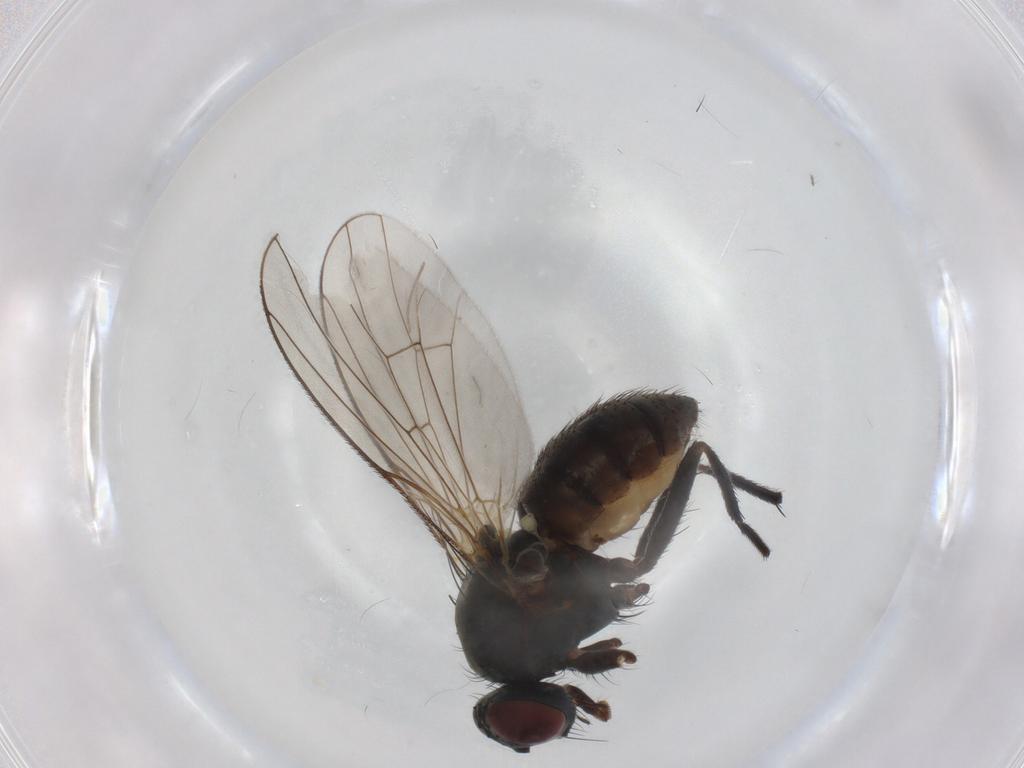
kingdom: Animalia
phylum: Arthropoda
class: Insecta
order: Diptera
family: Muscidae
